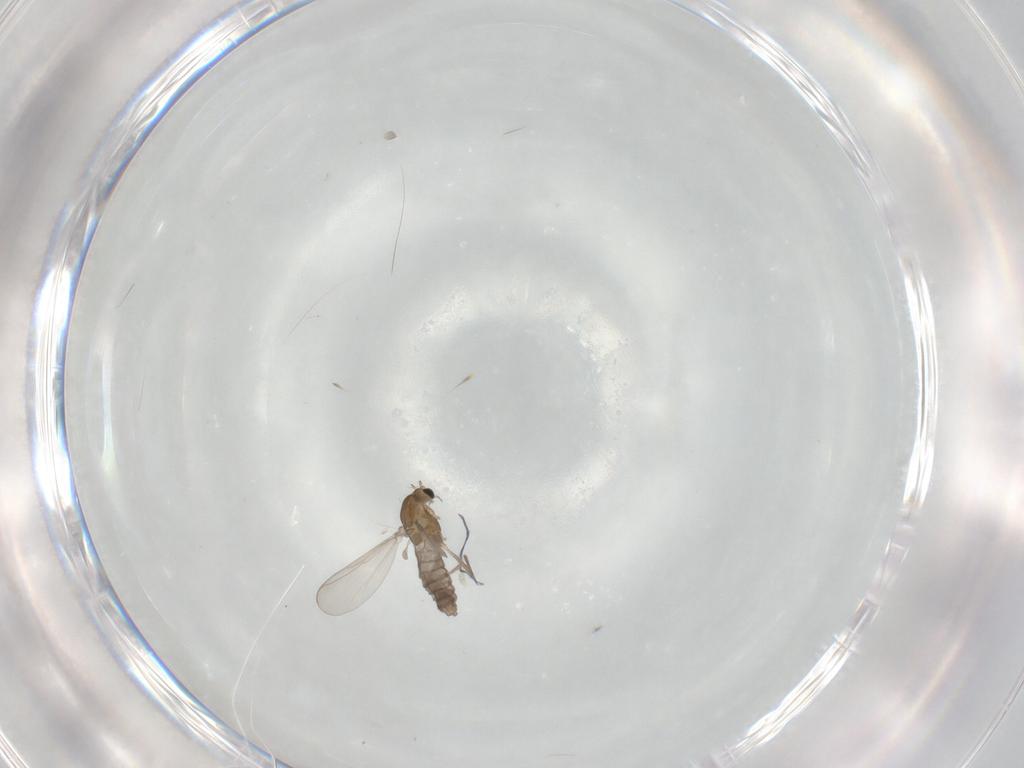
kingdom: Animalia
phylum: Arthropoda
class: Insecta
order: Diptera
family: Chironomidae
